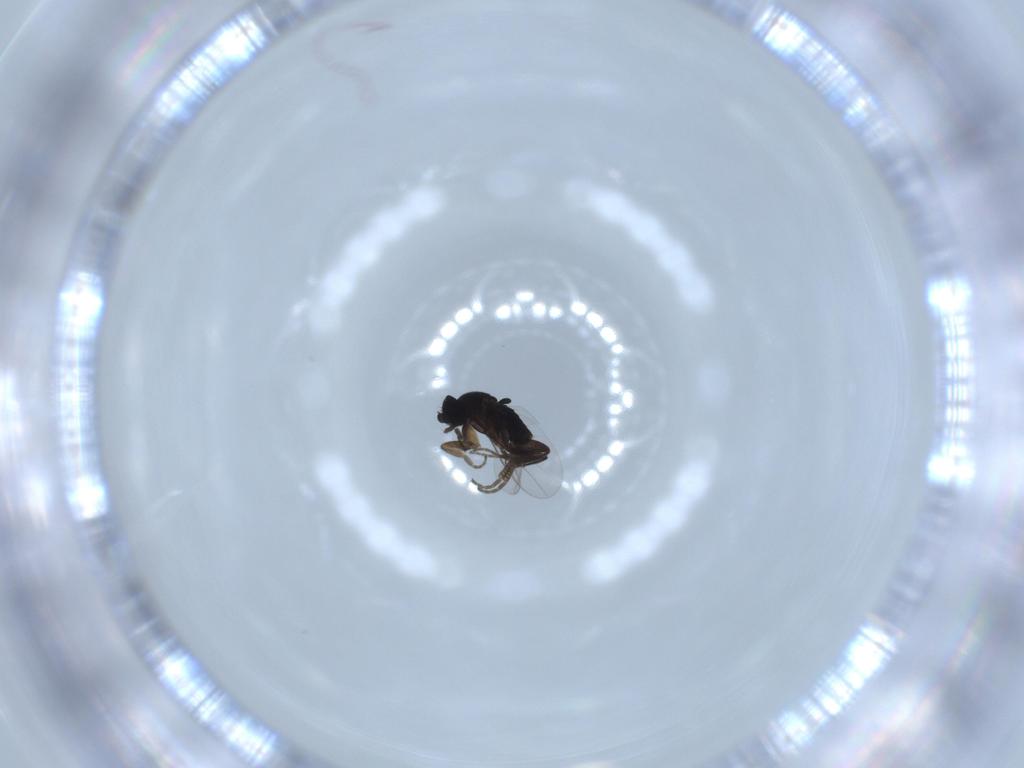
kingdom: Animalia
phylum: Arthropoda
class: Insecta
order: Diptera
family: Phoridae
